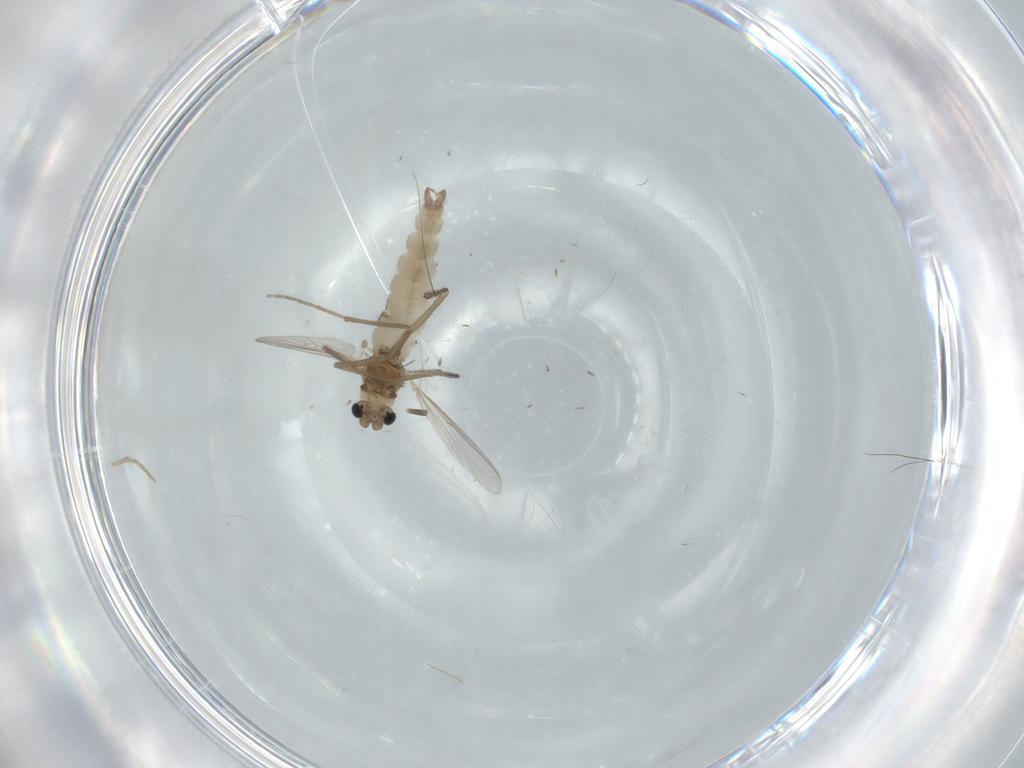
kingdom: Animalia
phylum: Arthropoda
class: Insecta
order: Diptera
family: Chironomidae
